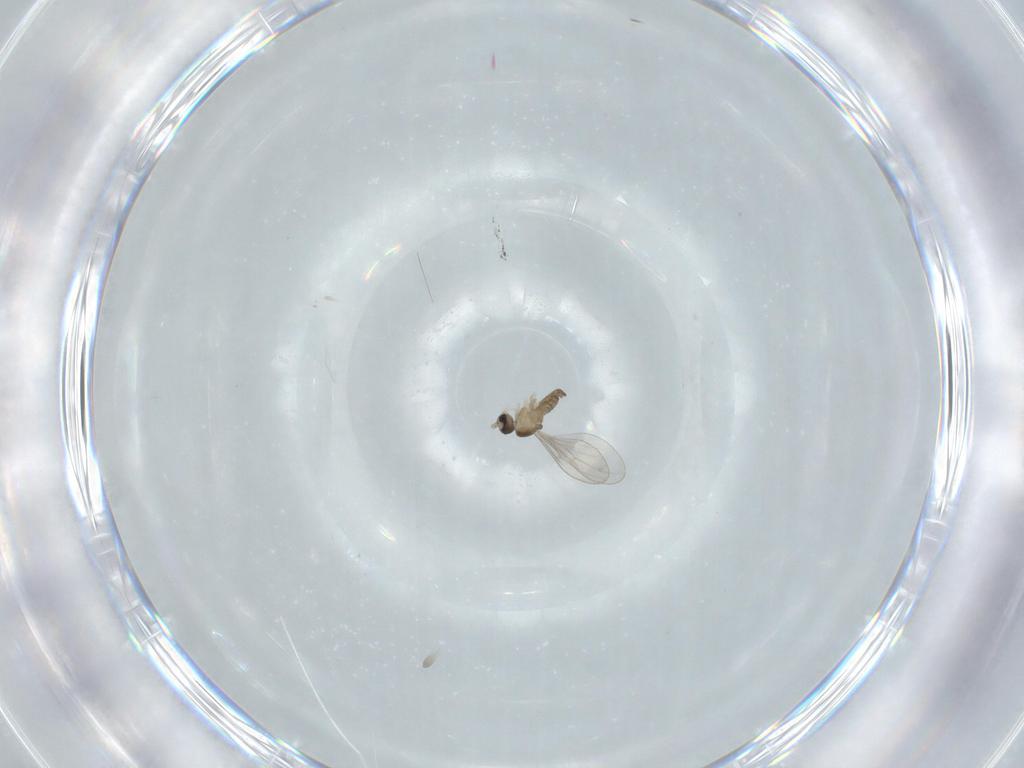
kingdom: Animalia
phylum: Arthropoda
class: Insecta
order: Diptera
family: Cecidomyiidae
